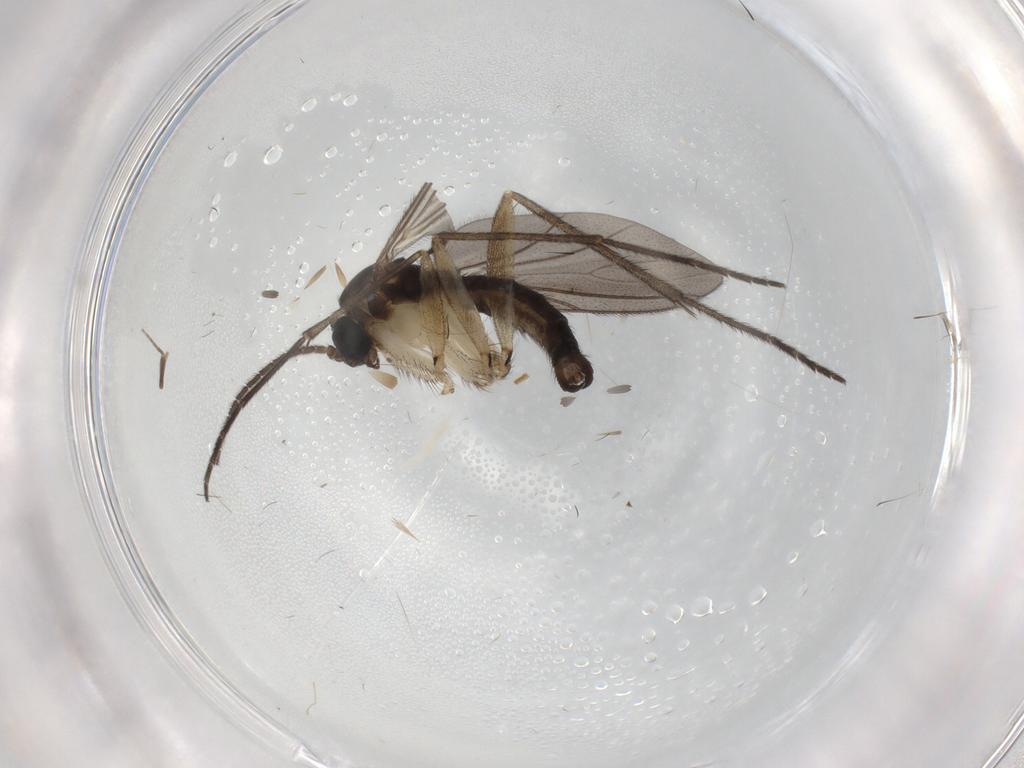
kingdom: Animalia
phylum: Arthropoda
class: Insecta
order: Diptera
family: Sciaridae
